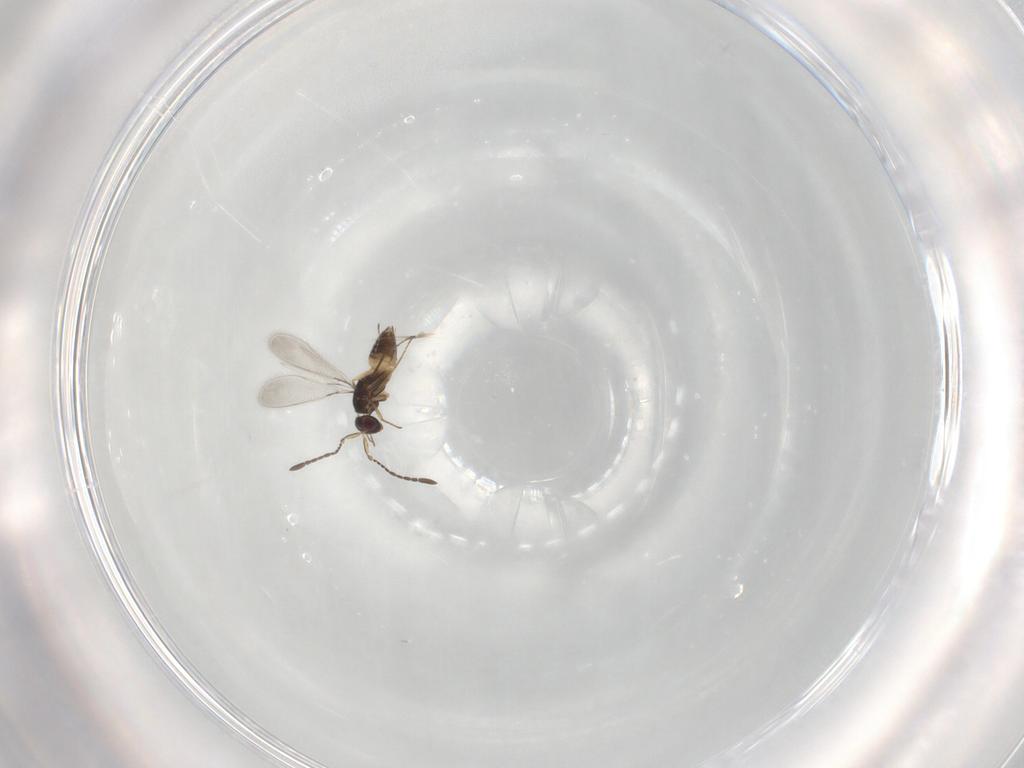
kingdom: Animalia
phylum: Arthropoda
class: Insecta
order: Hymenoptera
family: Mymaridae
